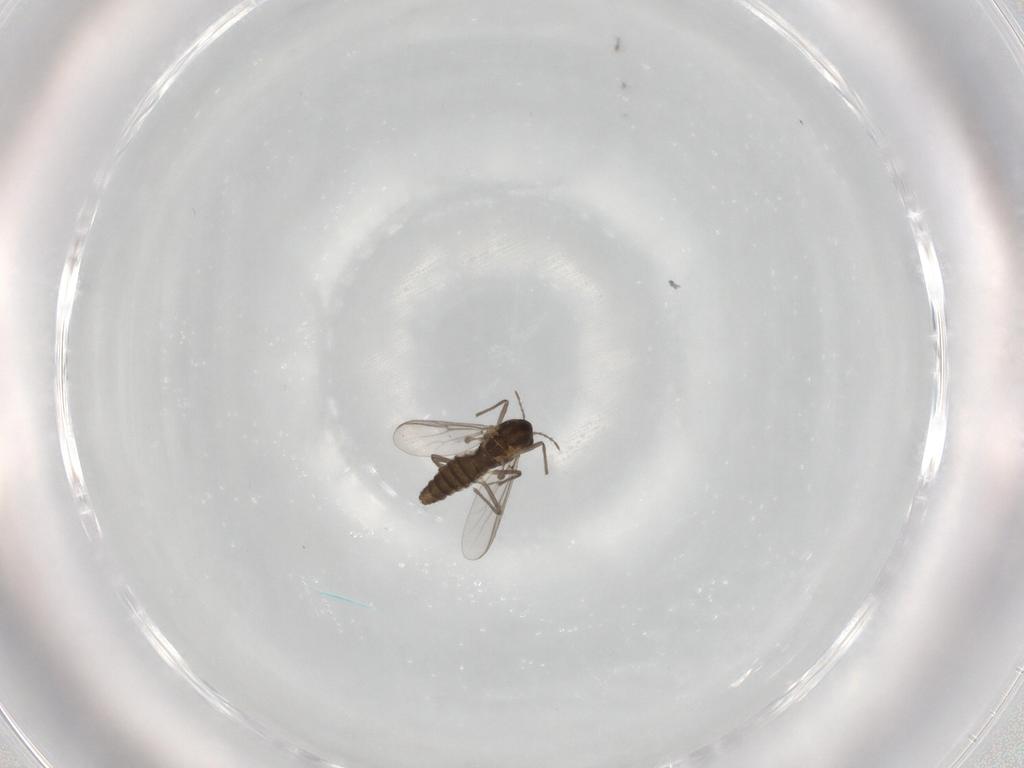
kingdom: Animalia
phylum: Arthropoda
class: Insecta
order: Diptera
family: Chironomidae
